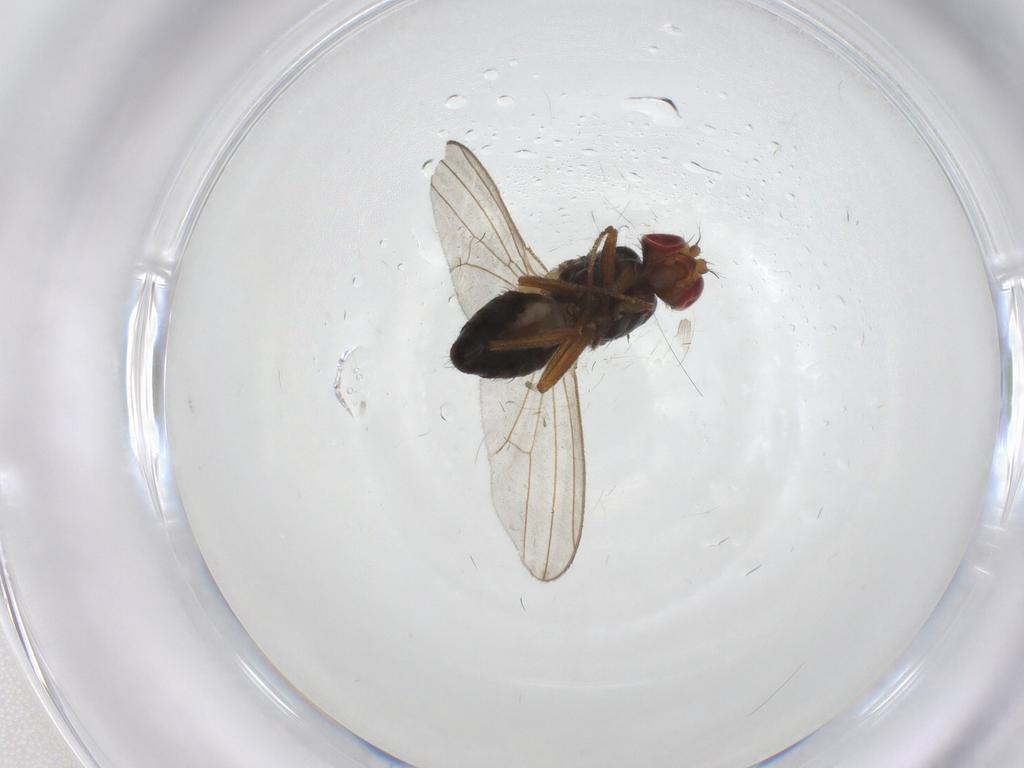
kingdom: Animalia
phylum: Arthropoda
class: Insecta
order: Diptera
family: Drosophilidae
